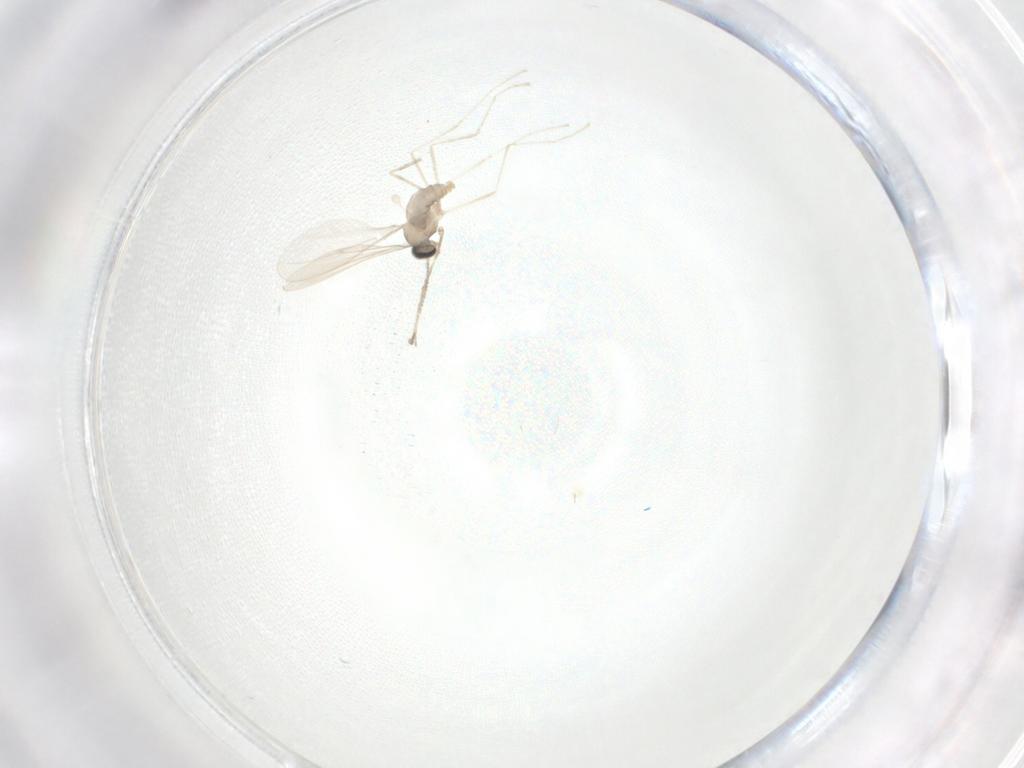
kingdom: Animalia
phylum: Arthropoda
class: Insecta
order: Diptera
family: Cecidomyiidae
